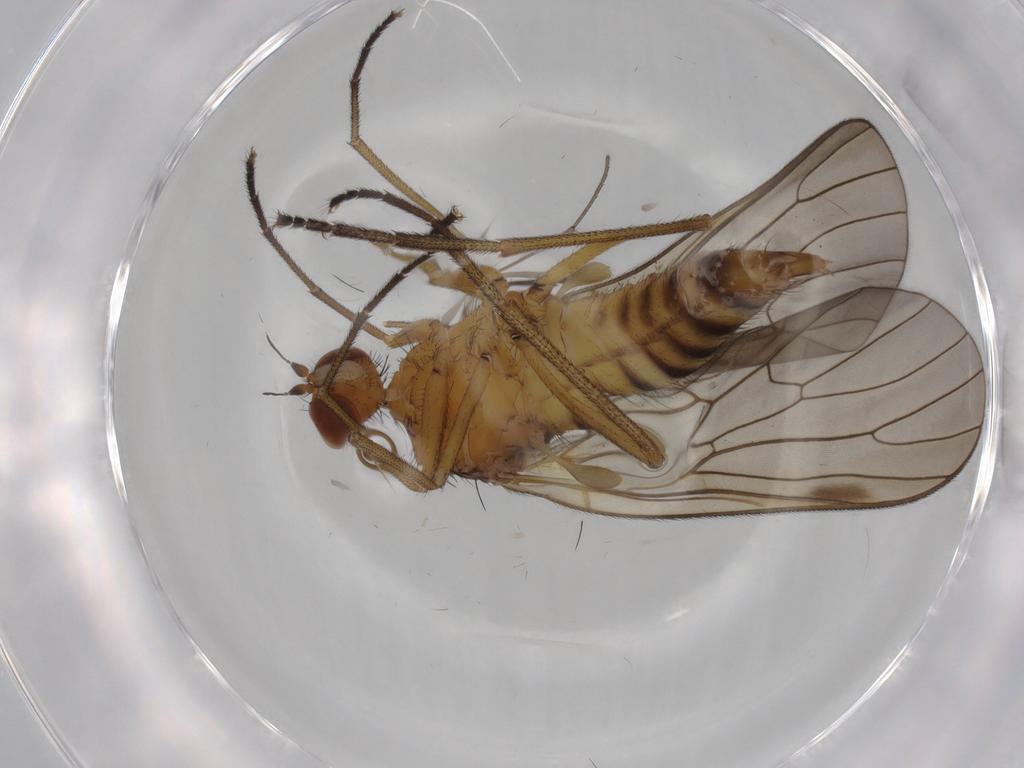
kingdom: Animalia
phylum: Arthropoda
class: Insecta
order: Diptera
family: Brachystomatidae
